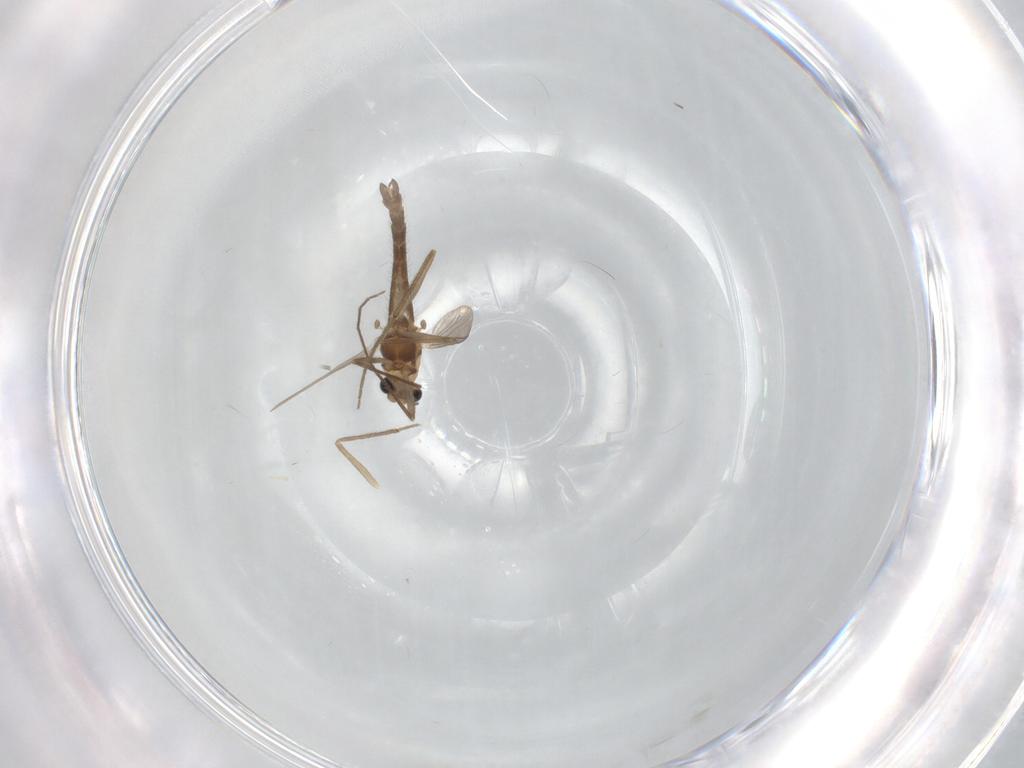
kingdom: Animalia
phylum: Arthropoda
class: Insecta
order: Diptera
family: Chironomidae
